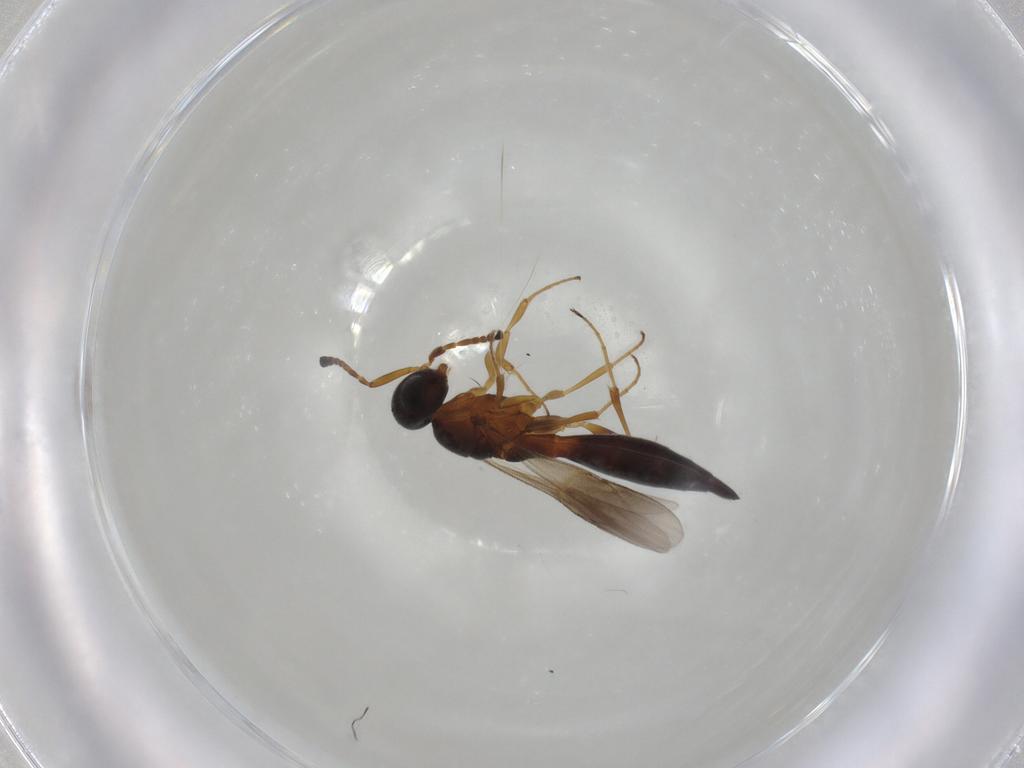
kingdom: Animalia
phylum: Arthropoda
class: Insecta
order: Hymenoptera
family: Scelionidae
